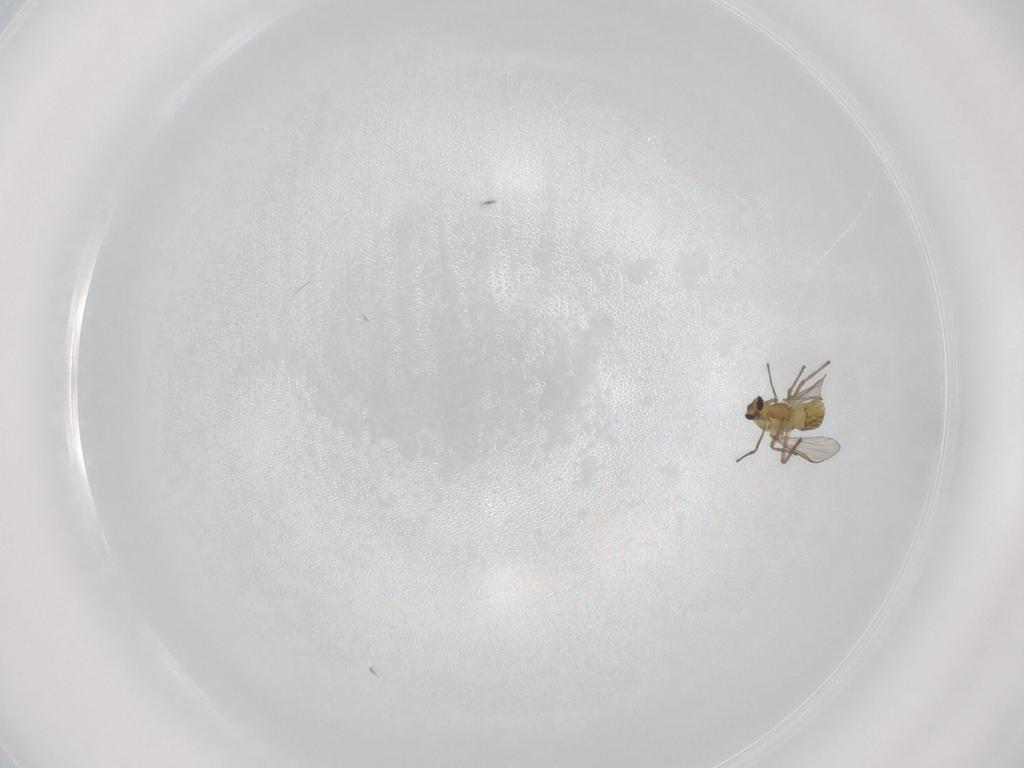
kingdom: Animalia
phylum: Arthropoda
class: Insecta
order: Diptera
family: Chironomidae
